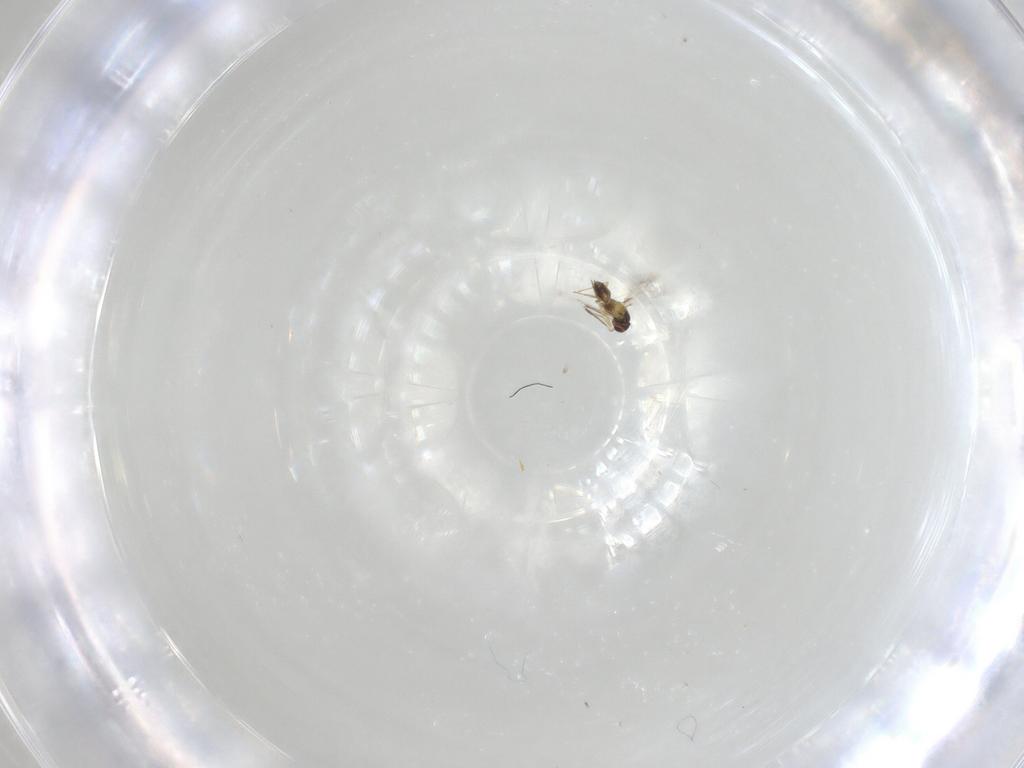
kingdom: Animalia
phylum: Arthropoda
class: Insecta
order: Hymenoptera
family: Mymaridae
